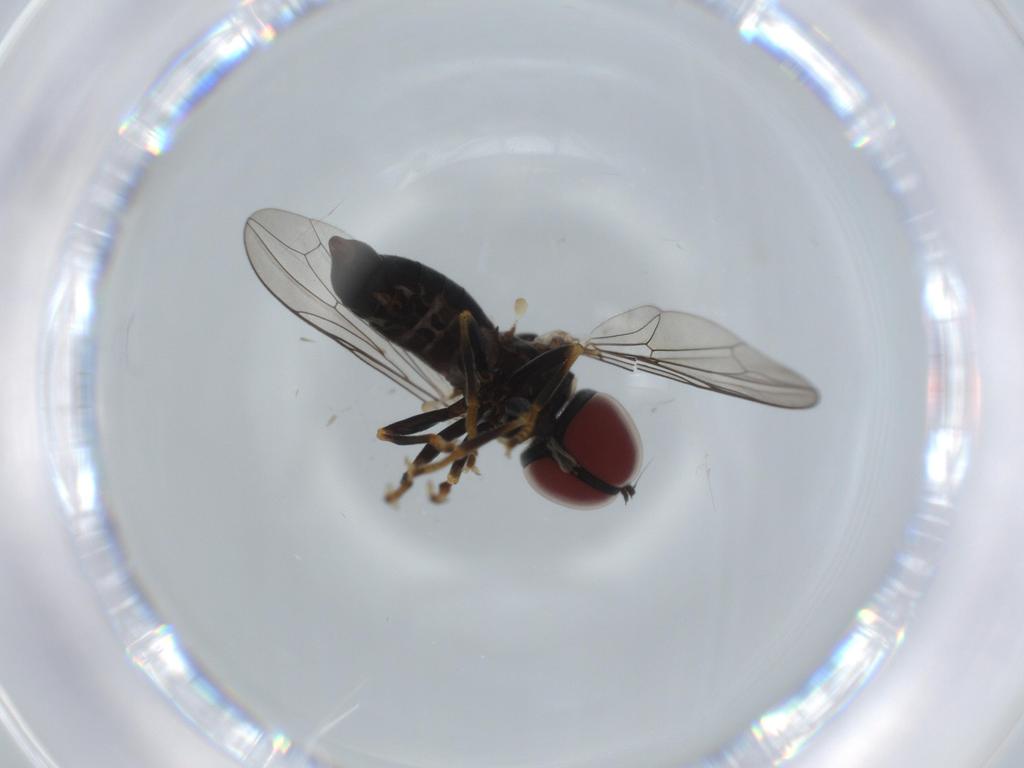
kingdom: Animalia
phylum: Arthropoda
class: Insecta
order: Diptera
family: Pipunculidae
